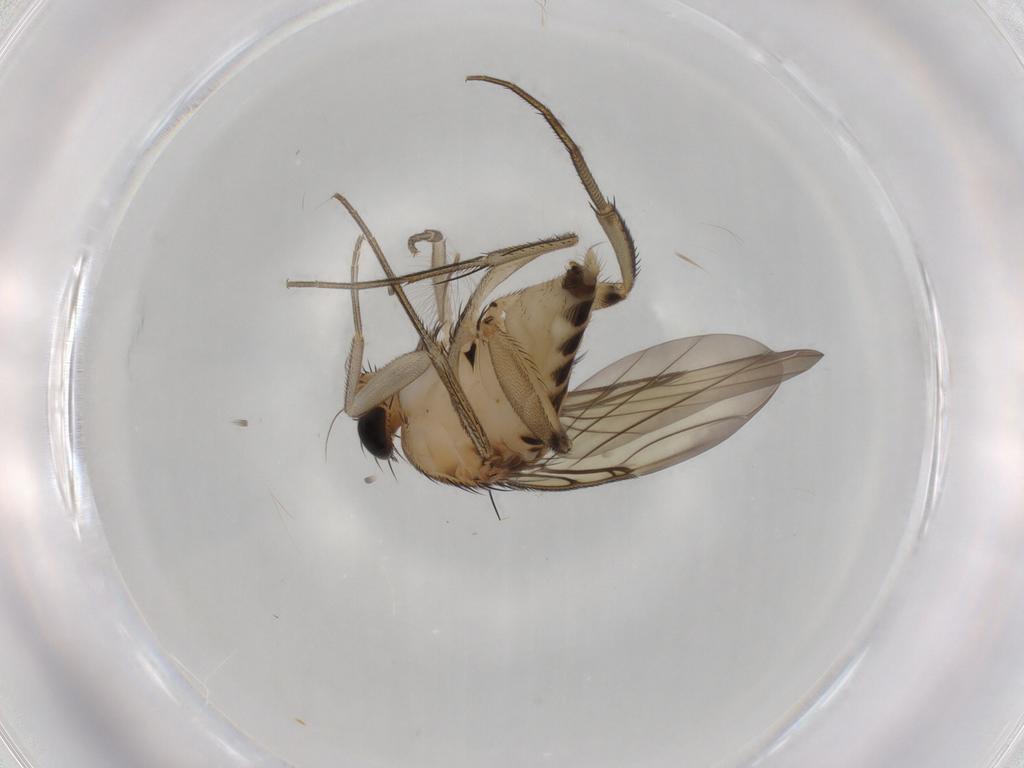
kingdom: Animalia
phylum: Arthropoda
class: Insecta
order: Diptera
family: Phoridae
